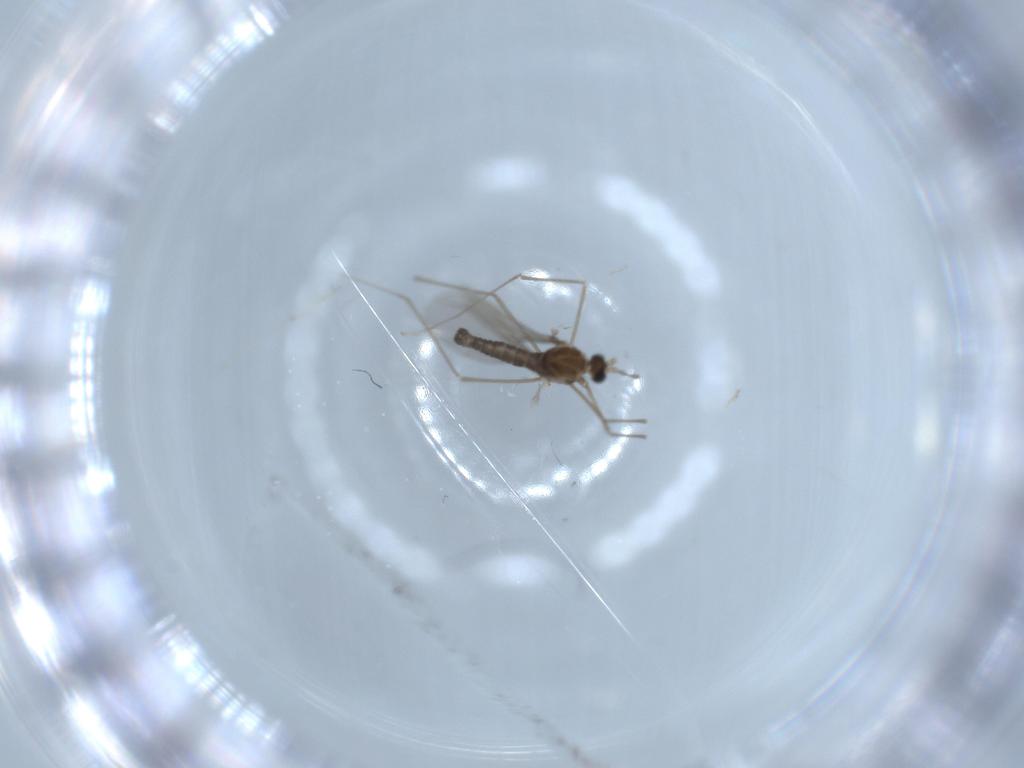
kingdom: Animalia
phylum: Arthropoda
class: Insecta
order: Diptera
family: Cecidomyiidae
